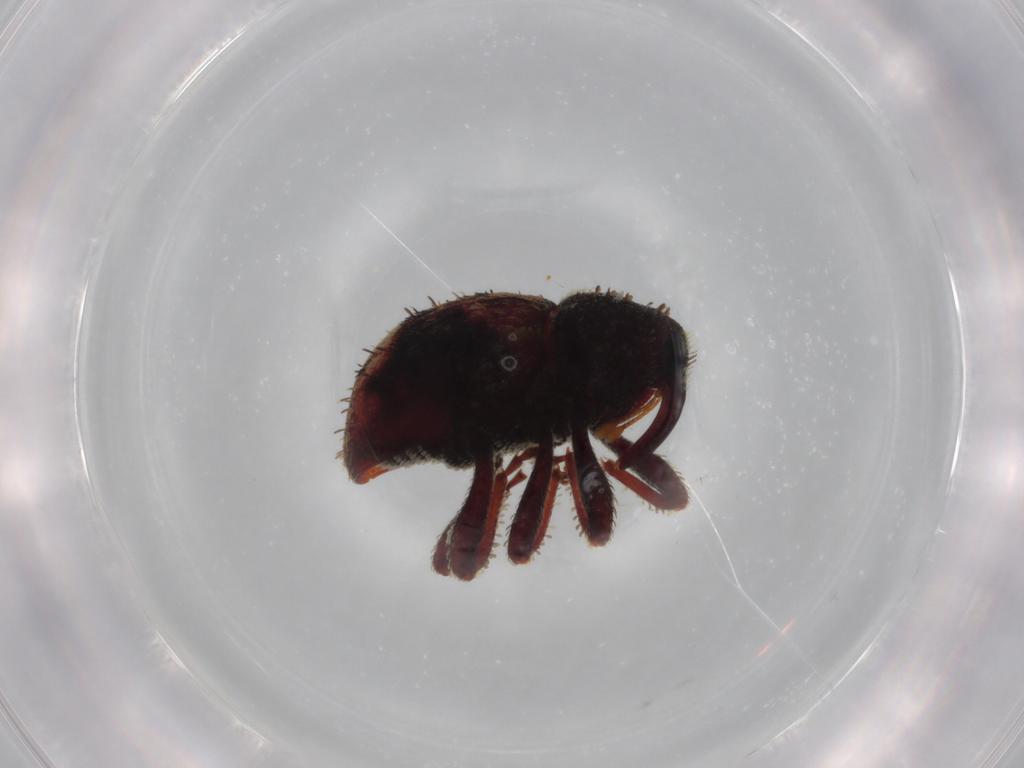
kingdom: Animalia
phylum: Arthropoda
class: Insecta
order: Coleoptera
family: Curculionidae
